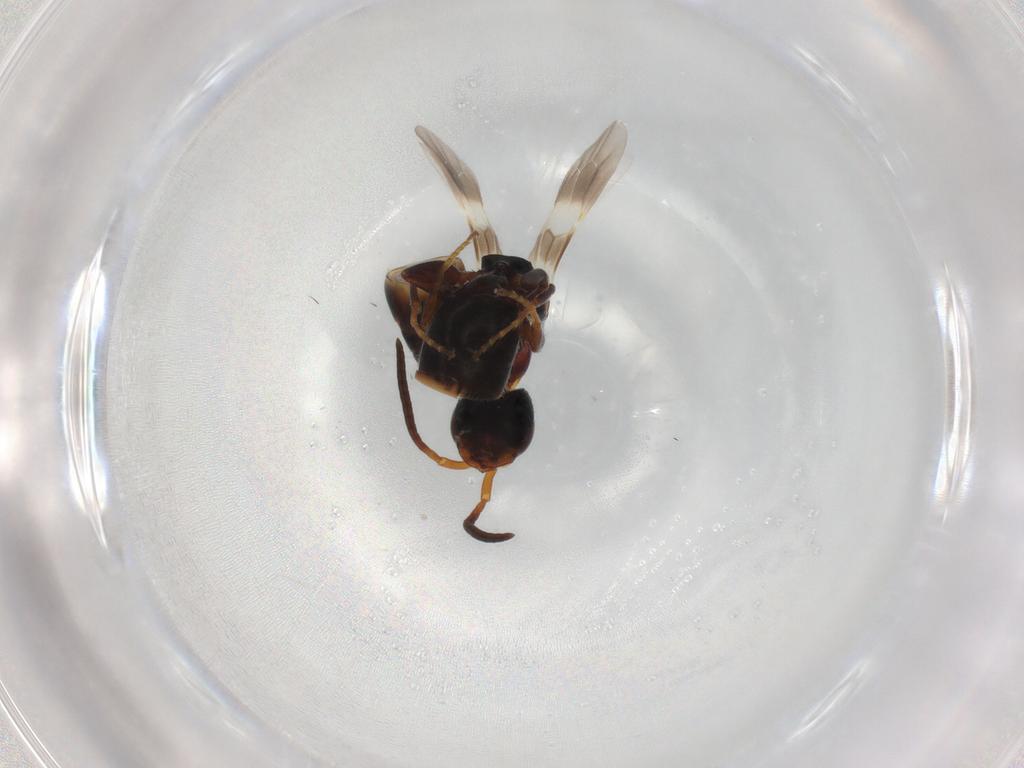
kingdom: Animalia
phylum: Arthropoda
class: Insecta
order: Hymenoptera
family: Bethylidae
